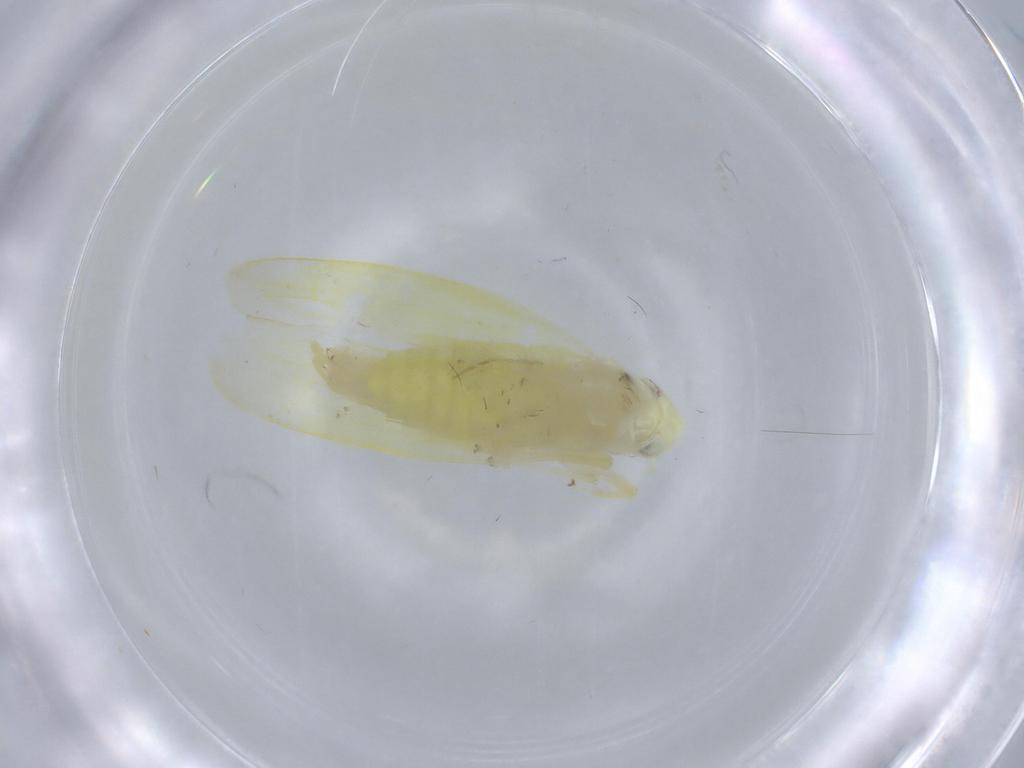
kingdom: Animalia
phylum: Arthropoda
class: Insecta
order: Hemiptera
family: Cicadellidae
